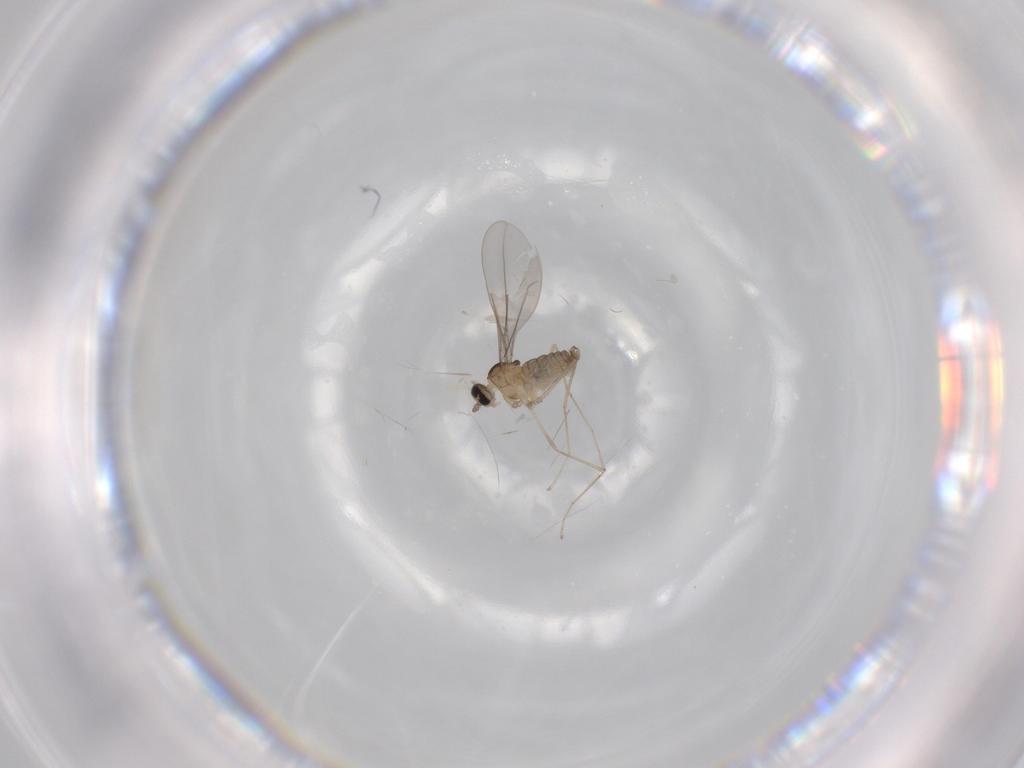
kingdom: Animalia
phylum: Arthropoda
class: Insecta
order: Diptera
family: Cecidomyiidae
